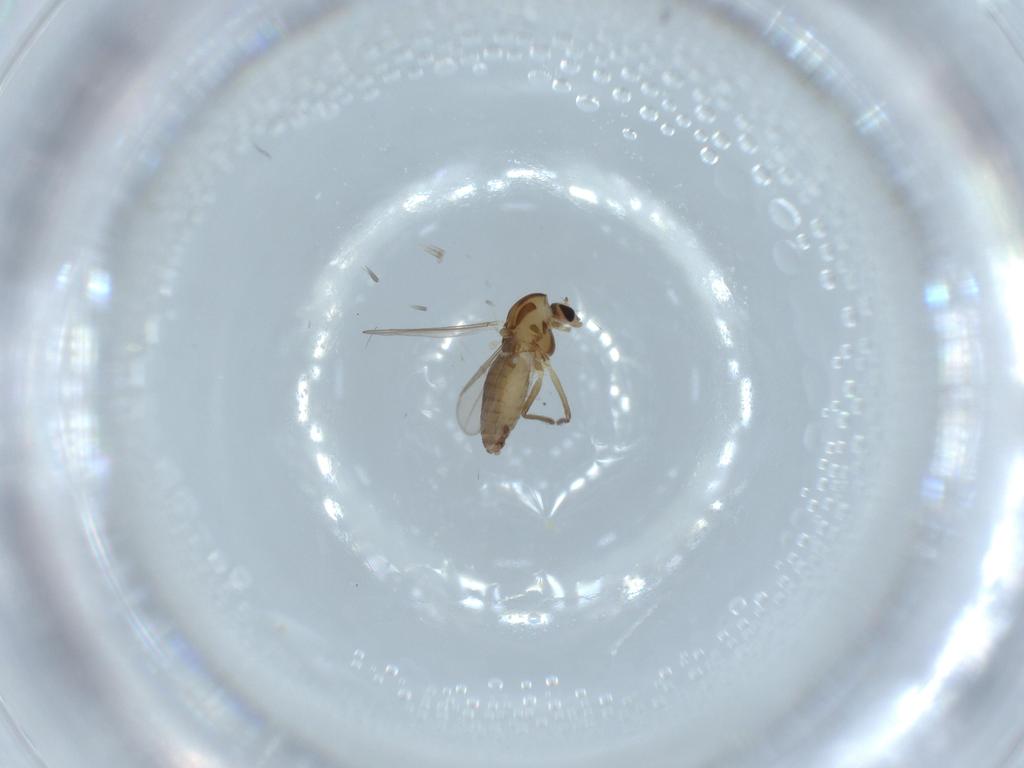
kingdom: Animalia
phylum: Arthropoda
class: Insecta
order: Diptera
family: Chironomidae
